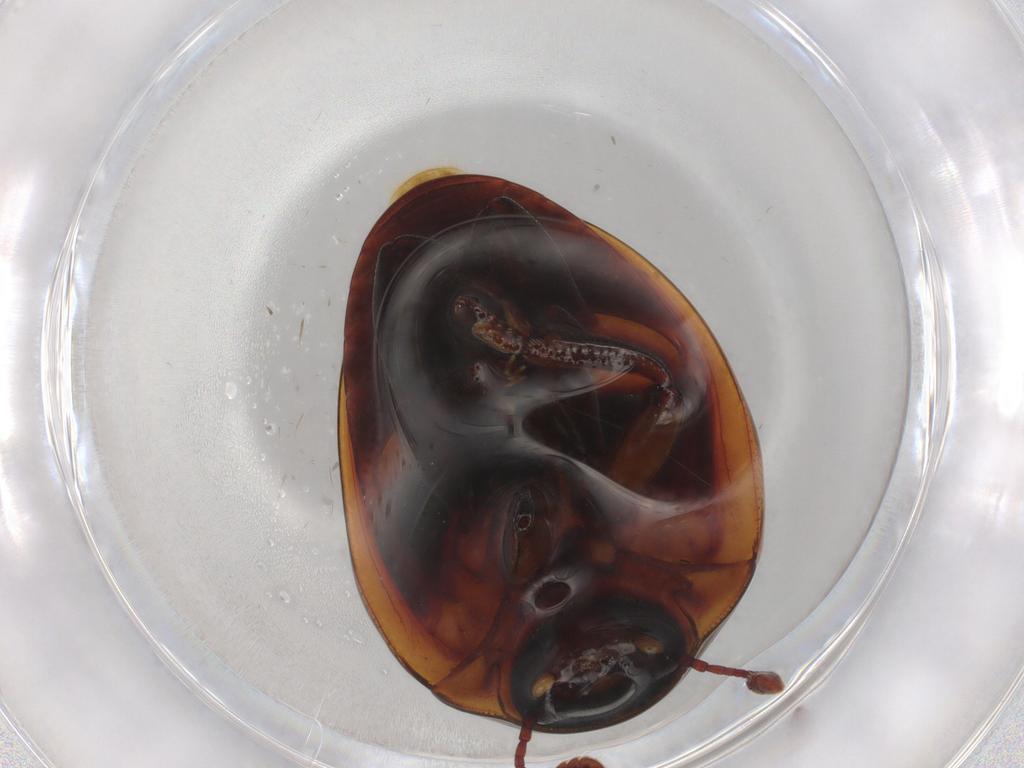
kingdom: Animalia
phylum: Arthropoda
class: Insecta
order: Coleoptera
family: Zopheridae
